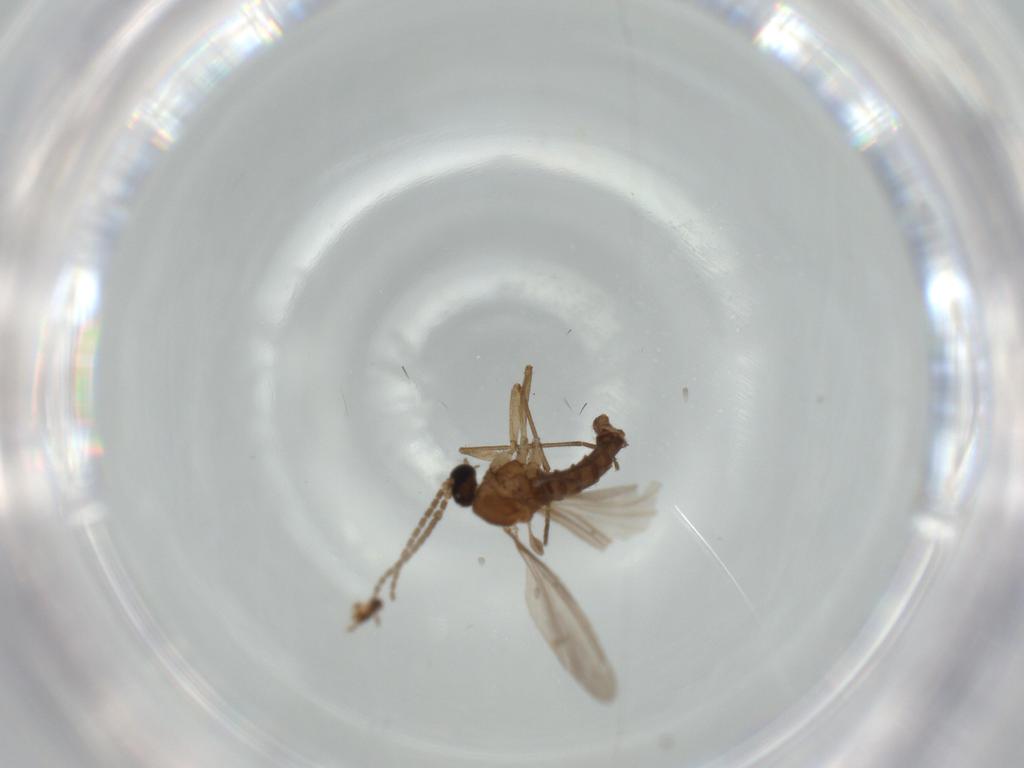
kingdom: Animalia
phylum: Arthropoda
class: Insecta
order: Diptera
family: Sciaridae
